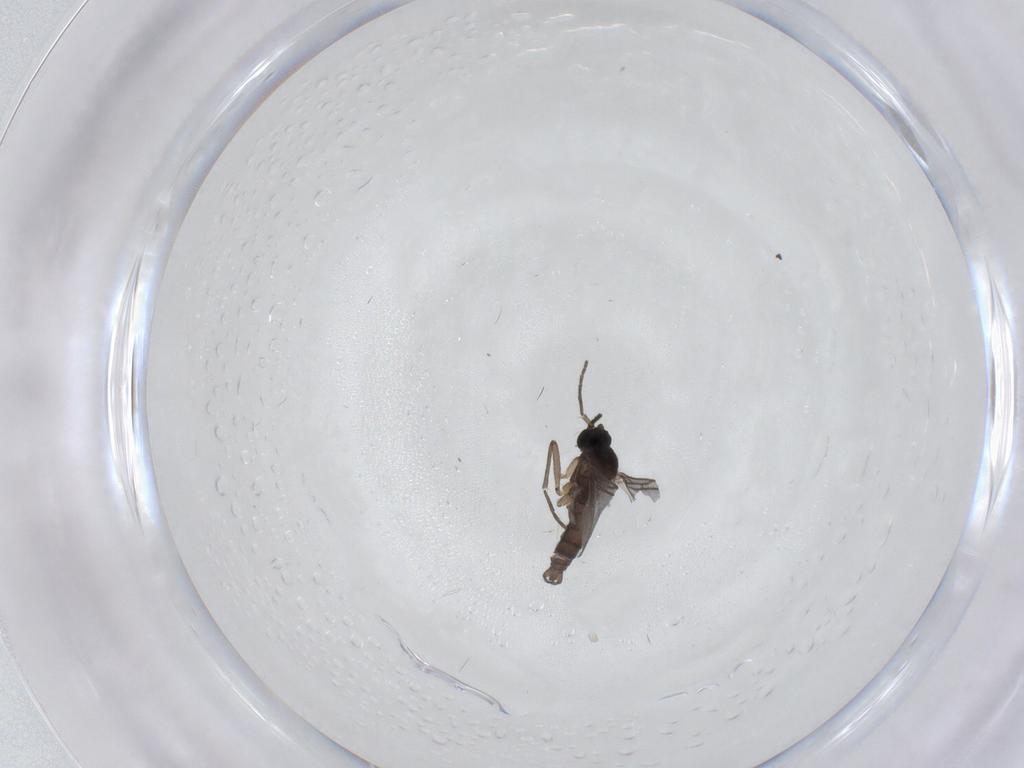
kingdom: Animalia
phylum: Arthropoda
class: Insecta
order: Diptera
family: Sciaridae
